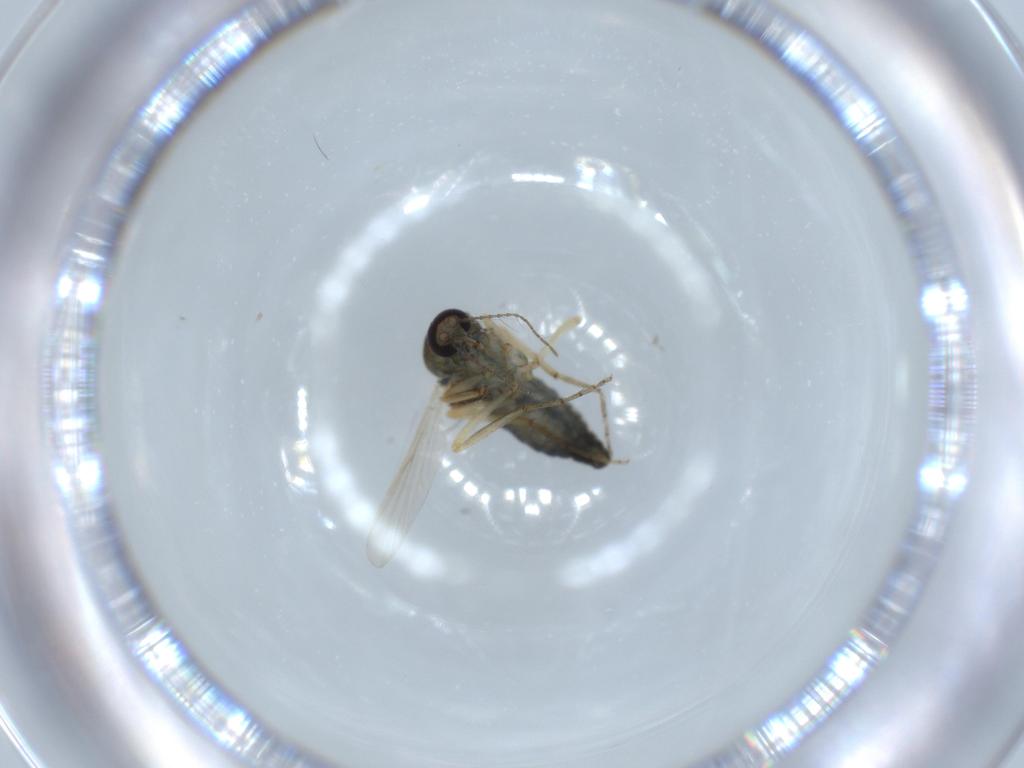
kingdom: Animalia
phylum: Arthropoda
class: Insecta
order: Diptera
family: Ceratopogonidae
